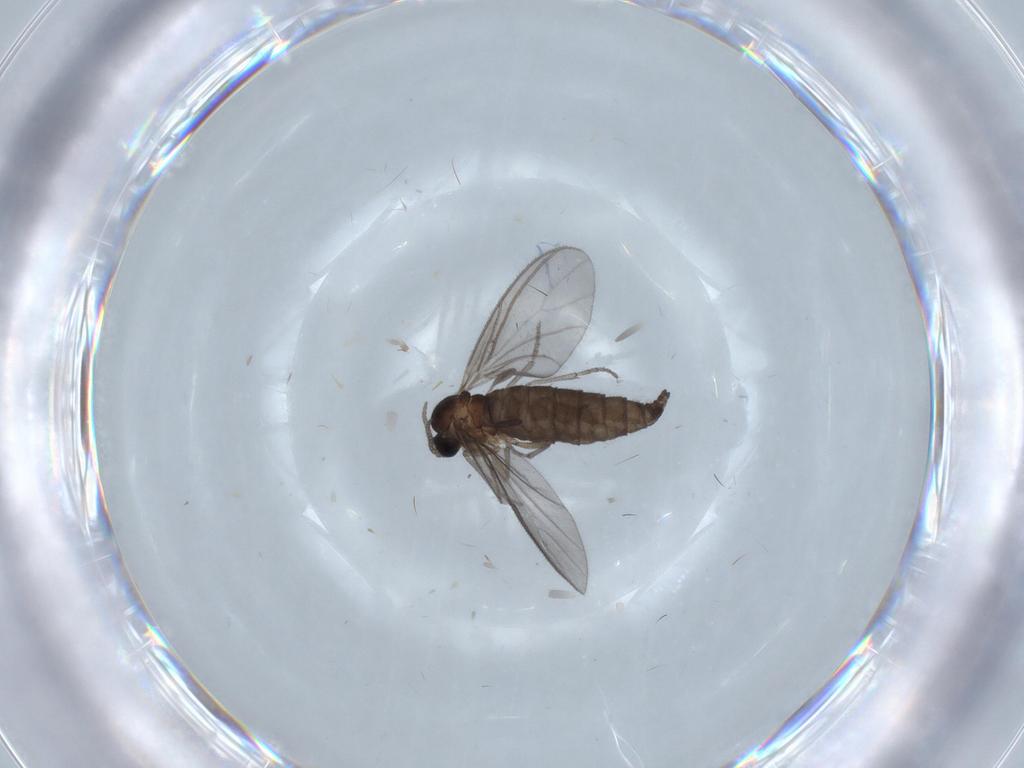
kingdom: Animalia
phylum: Arthropoda
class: Insecta
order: Diptera
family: Sciaridae
